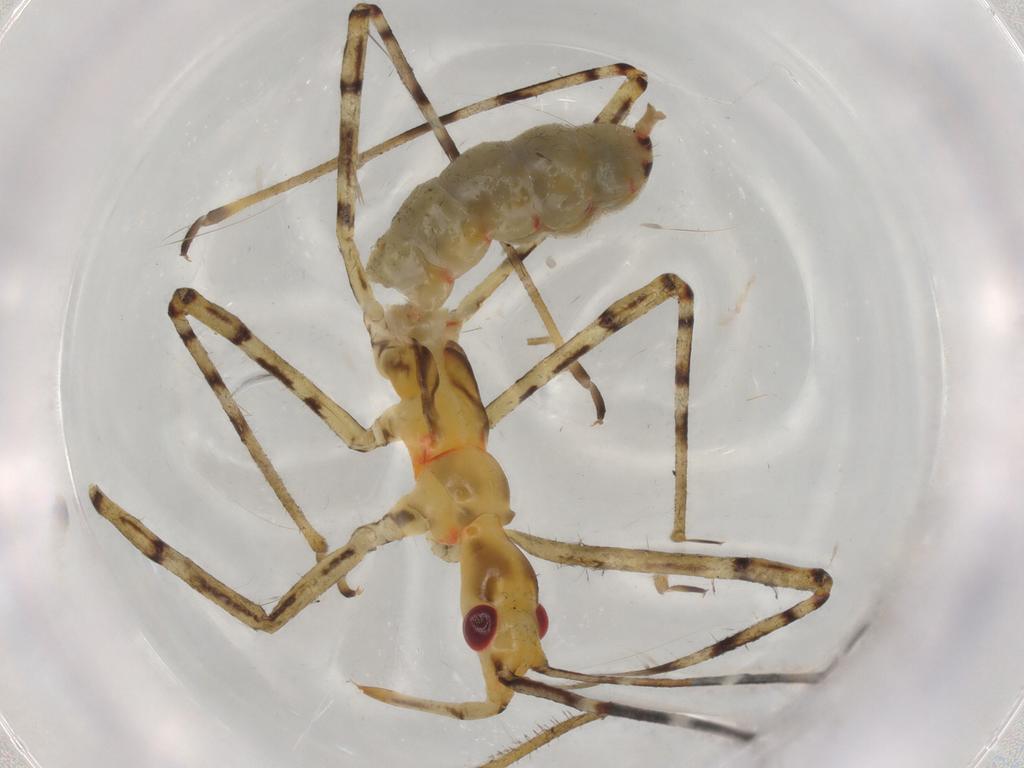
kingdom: Animalia
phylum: Arthropoda
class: Insecta
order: Hemiptera
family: Reduviidae
